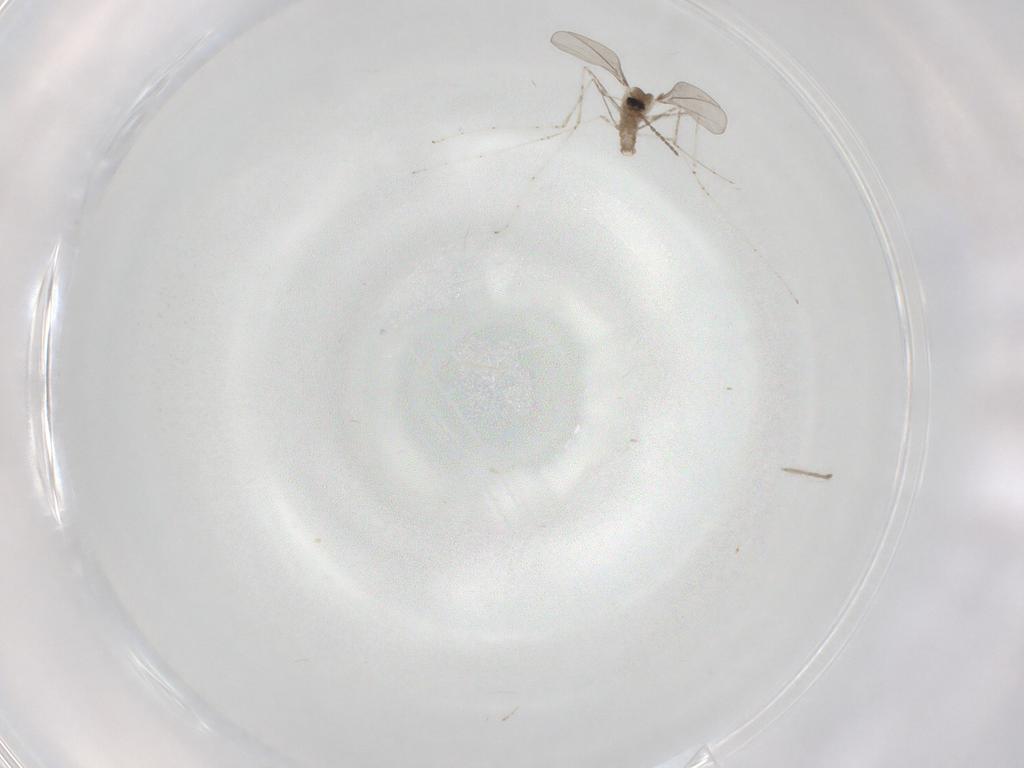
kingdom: Animalia
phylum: Arthropoda
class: Insecta
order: Diptera
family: Chironomidae
